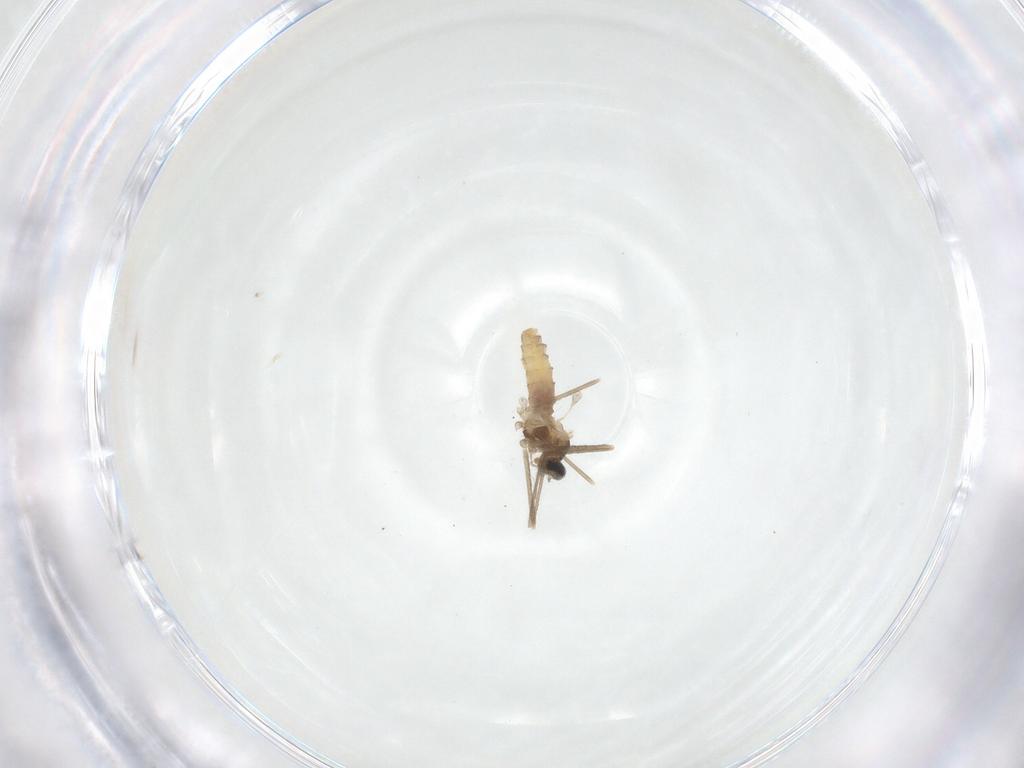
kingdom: Animalia
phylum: Arthropoda
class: Insecta
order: Diptera
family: Cecidomyiidae
